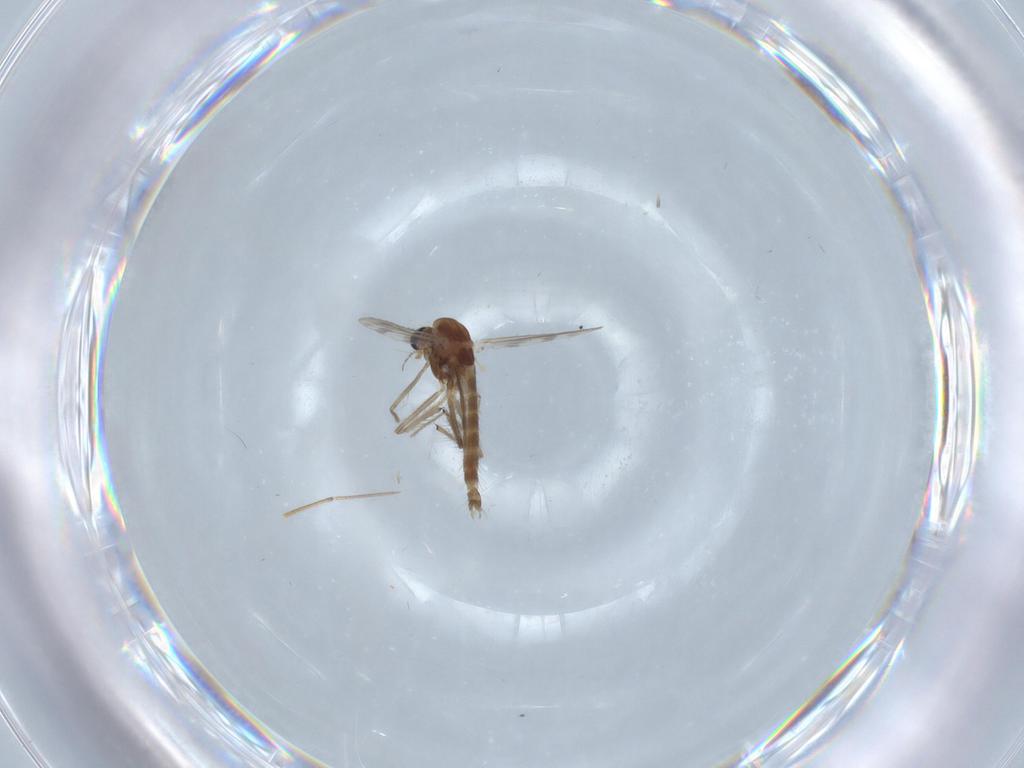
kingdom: Animalia
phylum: Arthropoda
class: Insecta
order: Diptera
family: Chironomidae
